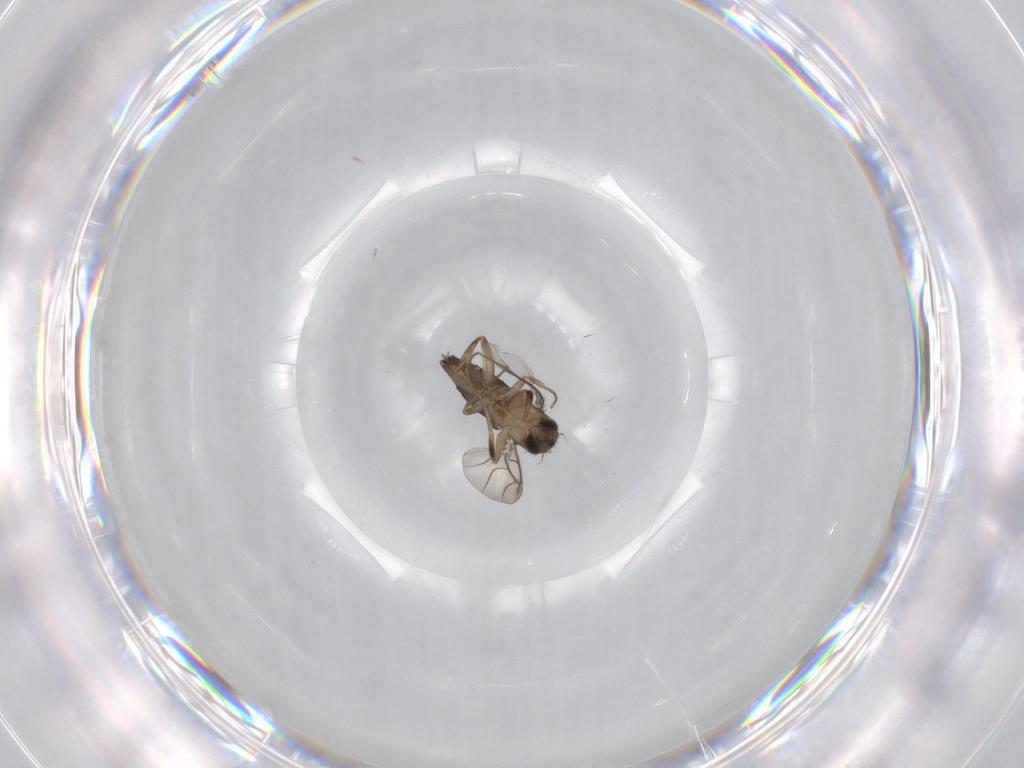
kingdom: Animalia
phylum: Arthropoda
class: Insecta
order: Diptera
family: Phoridae
